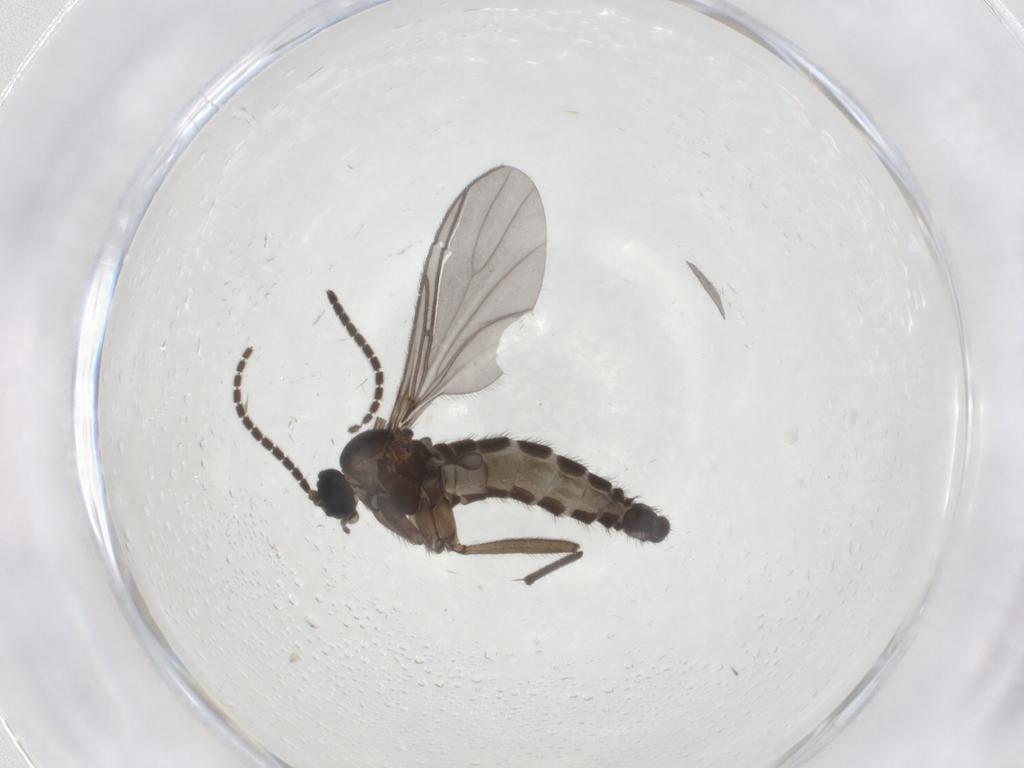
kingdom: Animalia
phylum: Arthropoda
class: Insecta
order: Diptera
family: Sciaridae
